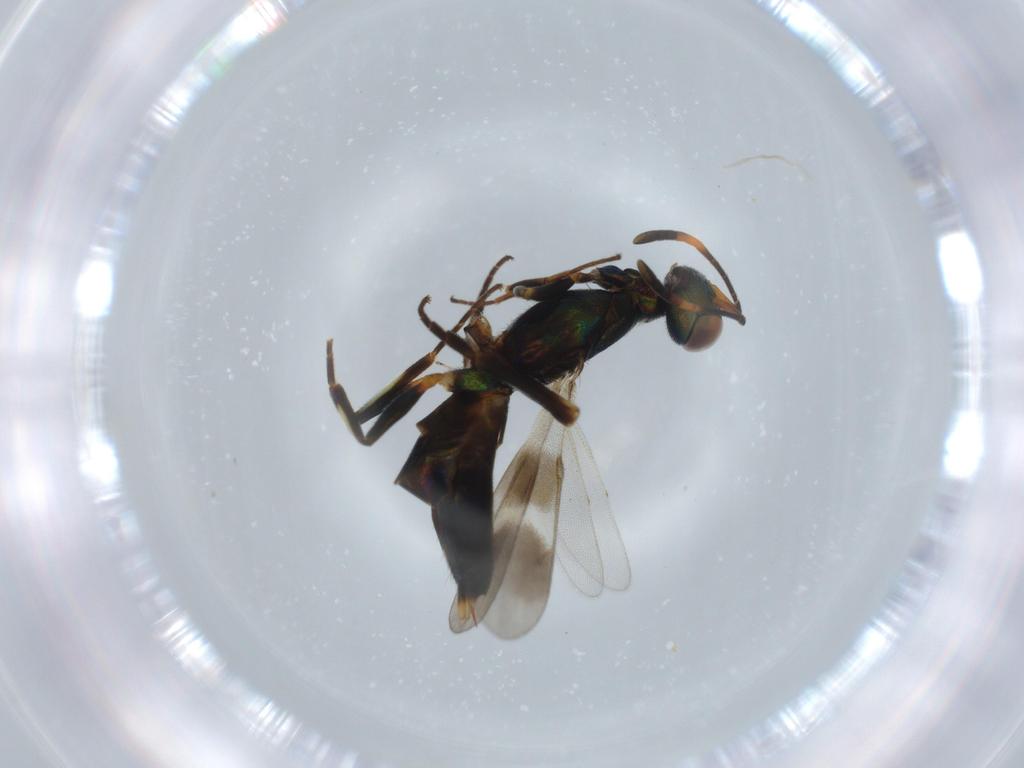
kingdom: Animalia
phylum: Arthropoda
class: Insecta
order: Hymenoptera
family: Eupelmidae
